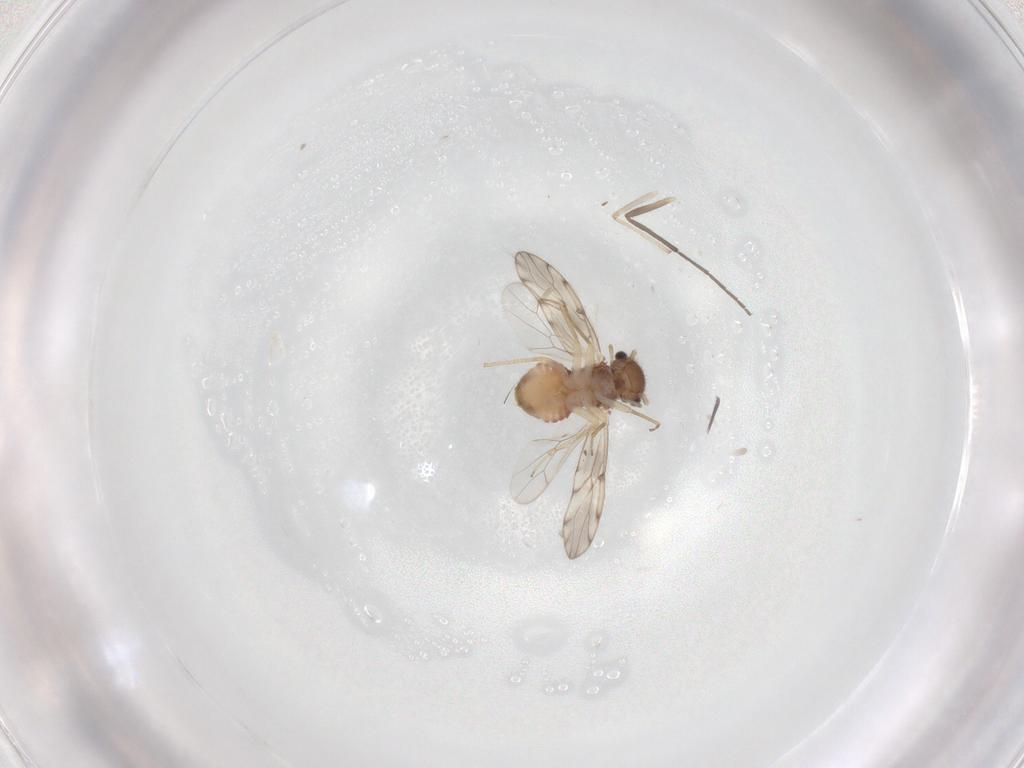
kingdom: Animalia
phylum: Arthropoda
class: Insecta
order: Psocodea
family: Peripsocidae
